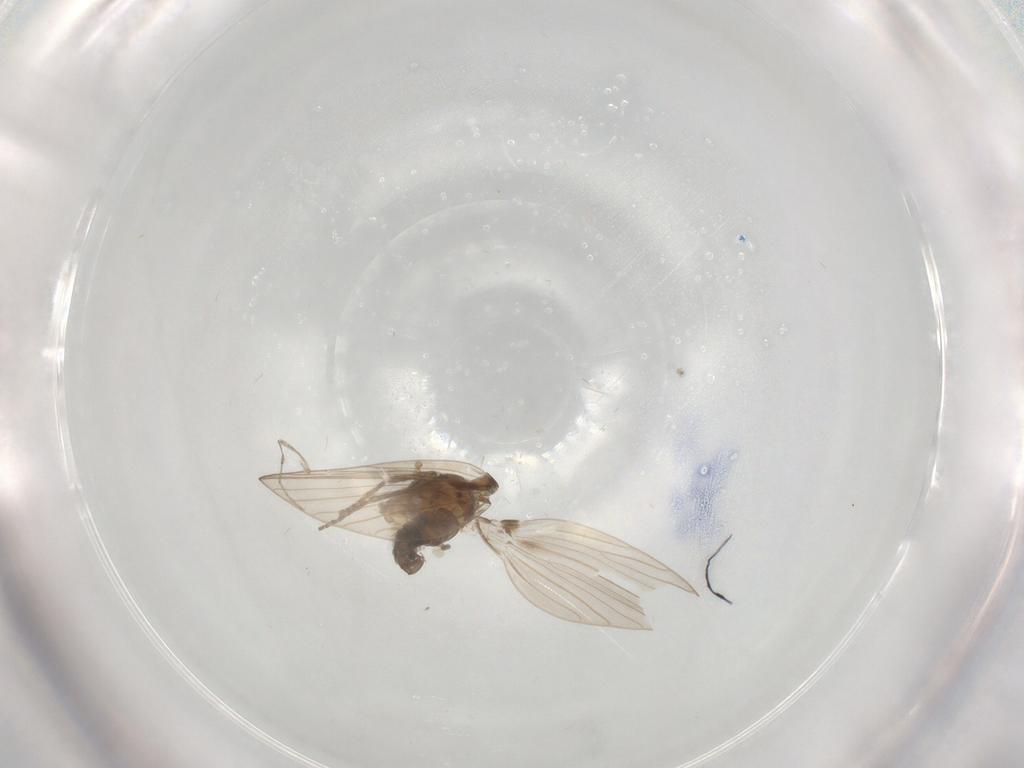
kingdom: Animalia
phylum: Arthropoda
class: Insecta
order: Diptera
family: Psychodidae
